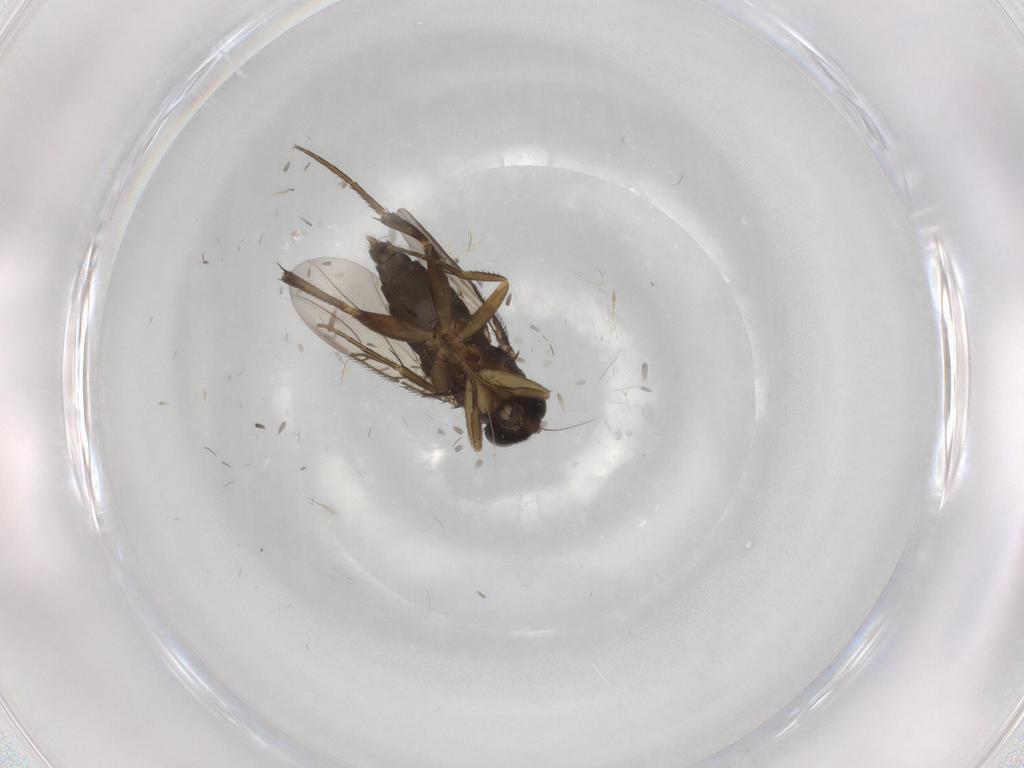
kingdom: Animalia
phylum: Arthropoda
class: Insecta
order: Diptera
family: Phoridae
